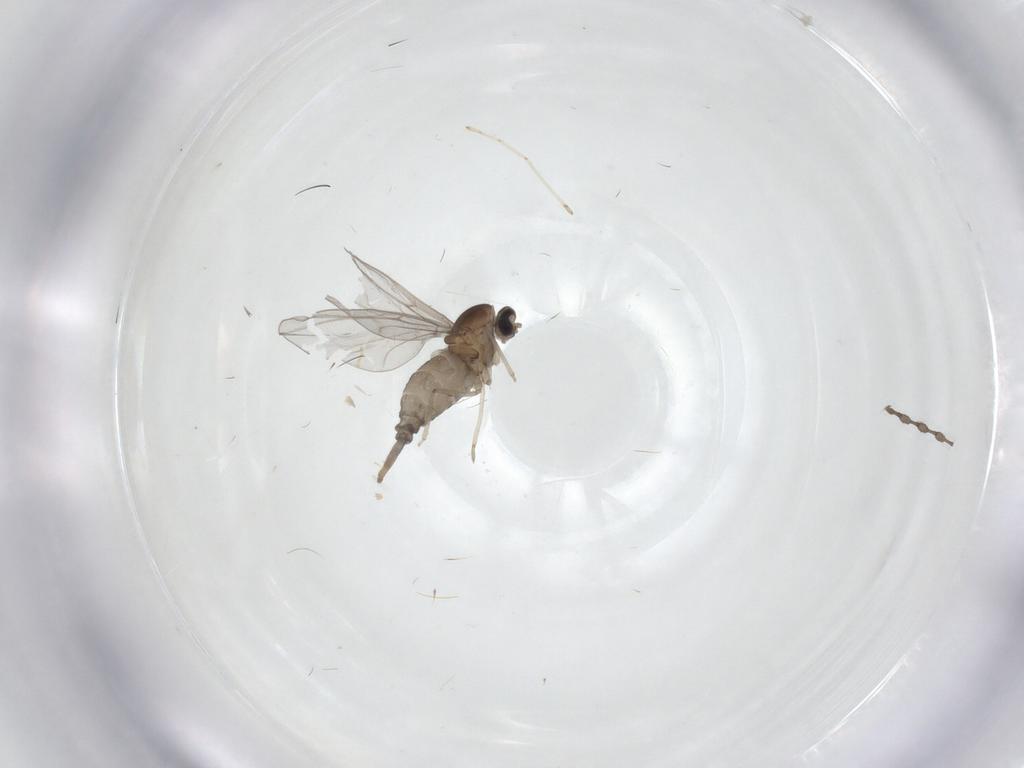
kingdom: Animalia
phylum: Arthropoda
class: Insecta
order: Diptera
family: Cecidomyiidae
